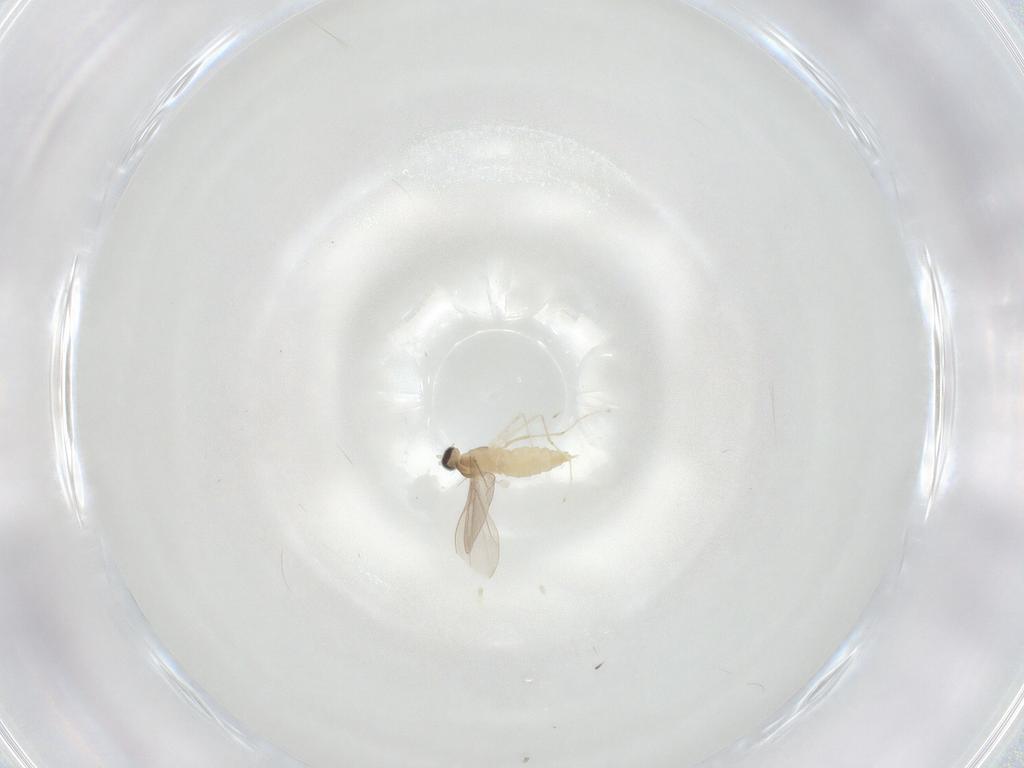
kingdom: Animalia
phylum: Arthropoda
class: Insecta
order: Diptera
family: Cecidomyiidae
